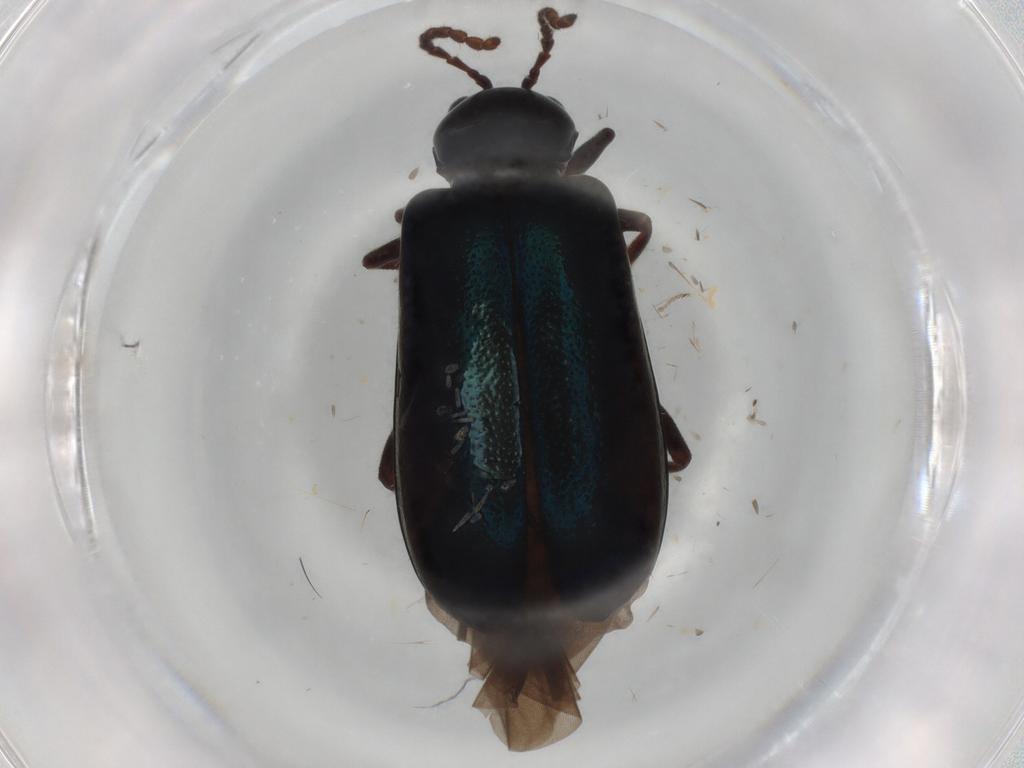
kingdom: Animalia
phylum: Arthropoda
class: Insecta
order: Coleoptera
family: Chrysomelidae
